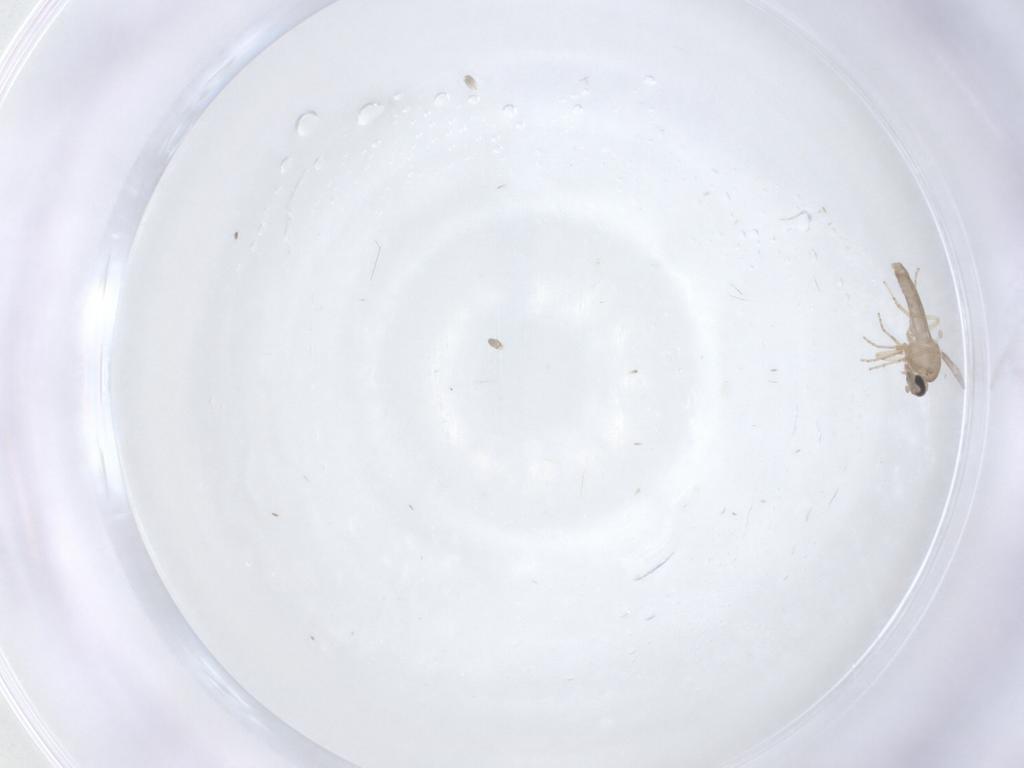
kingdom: Animalia
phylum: Arthropoda
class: Insecta
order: Diptera
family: Ceratopogonidae
